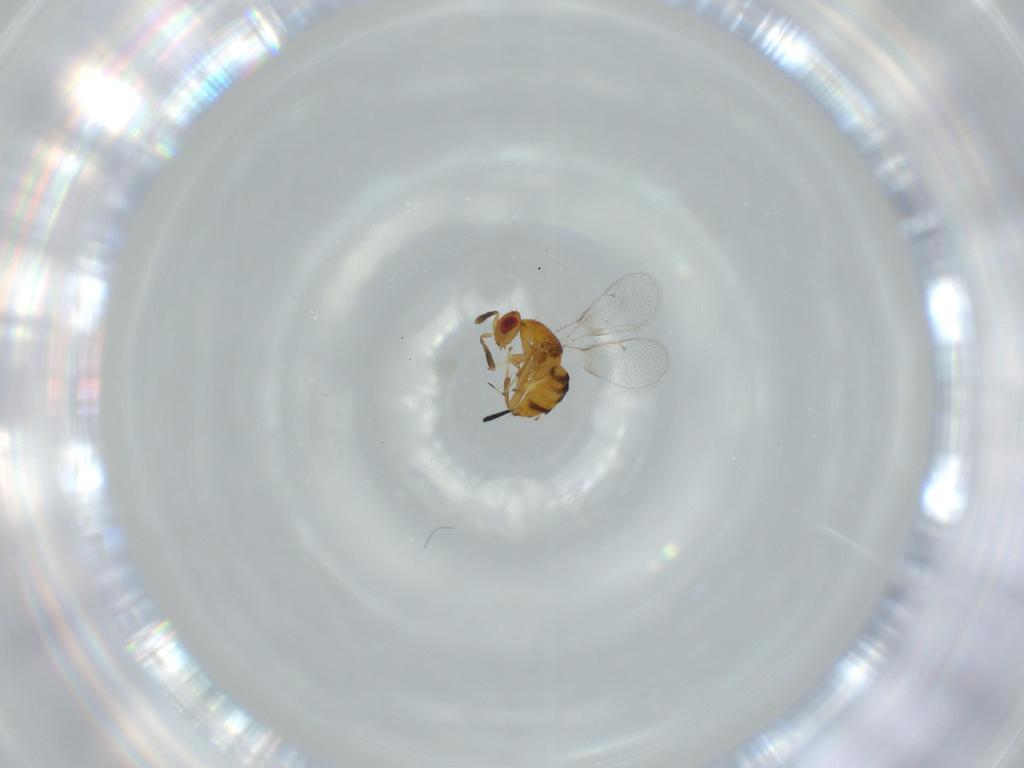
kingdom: Animalia
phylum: Arthropoda
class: Insecta
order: Hymenoptera
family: Torymidae
